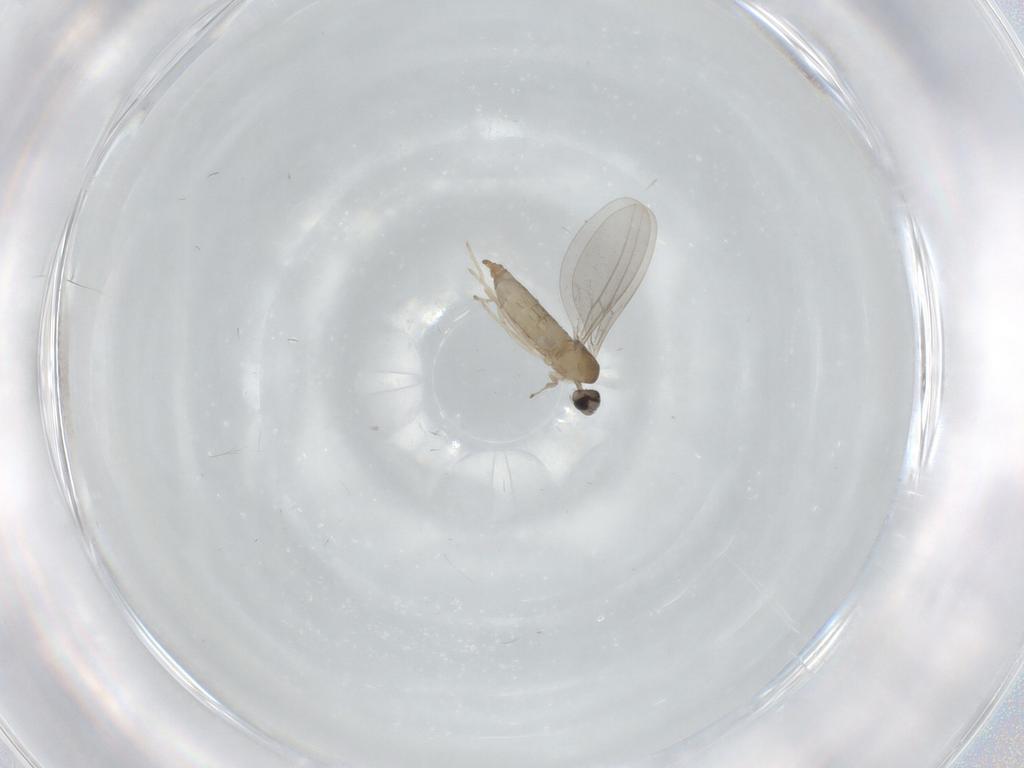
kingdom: Animalia
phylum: Arthropoda
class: Insecta
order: Diptera
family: Cecidomyiidae
